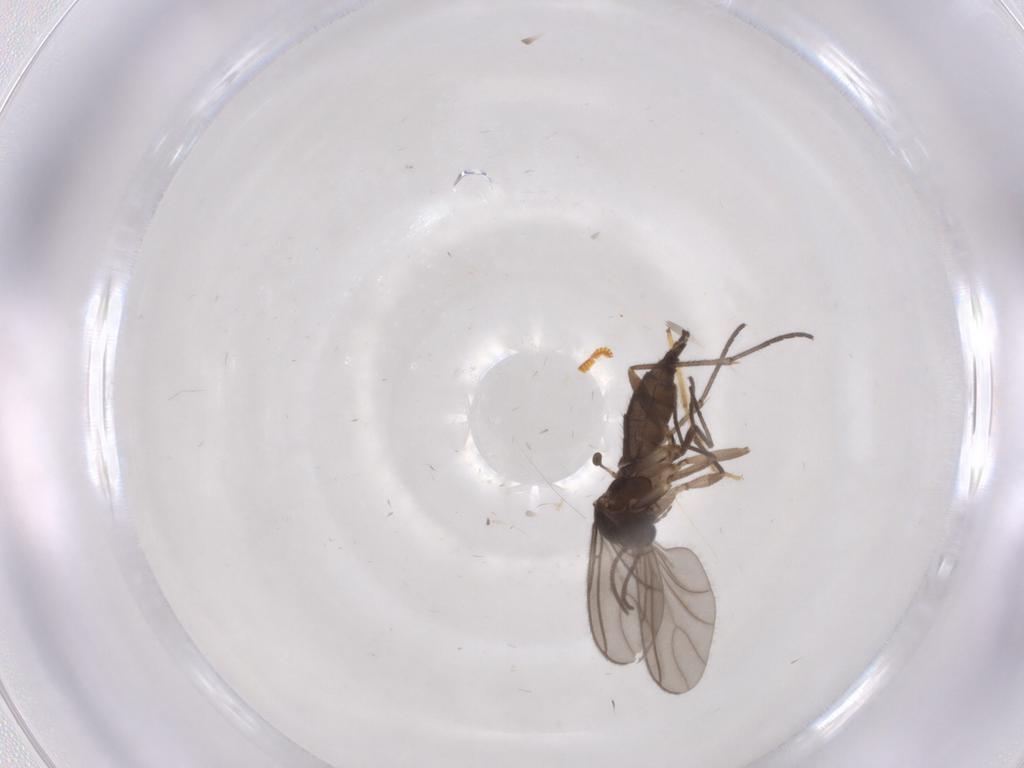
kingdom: Animalia
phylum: Arthropoda
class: Insecta
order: Diptera
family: Sciaridae
